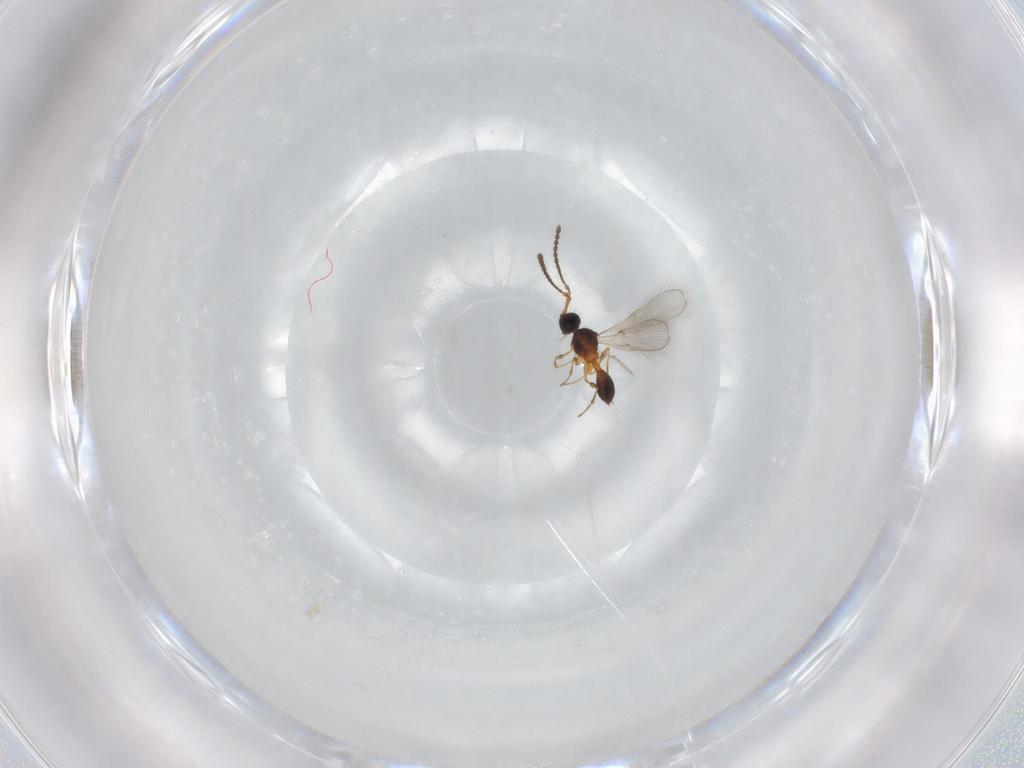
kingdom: Animalia
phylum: Arthropoda
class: Insecta
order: Hymenoptera
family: Diapriidae
